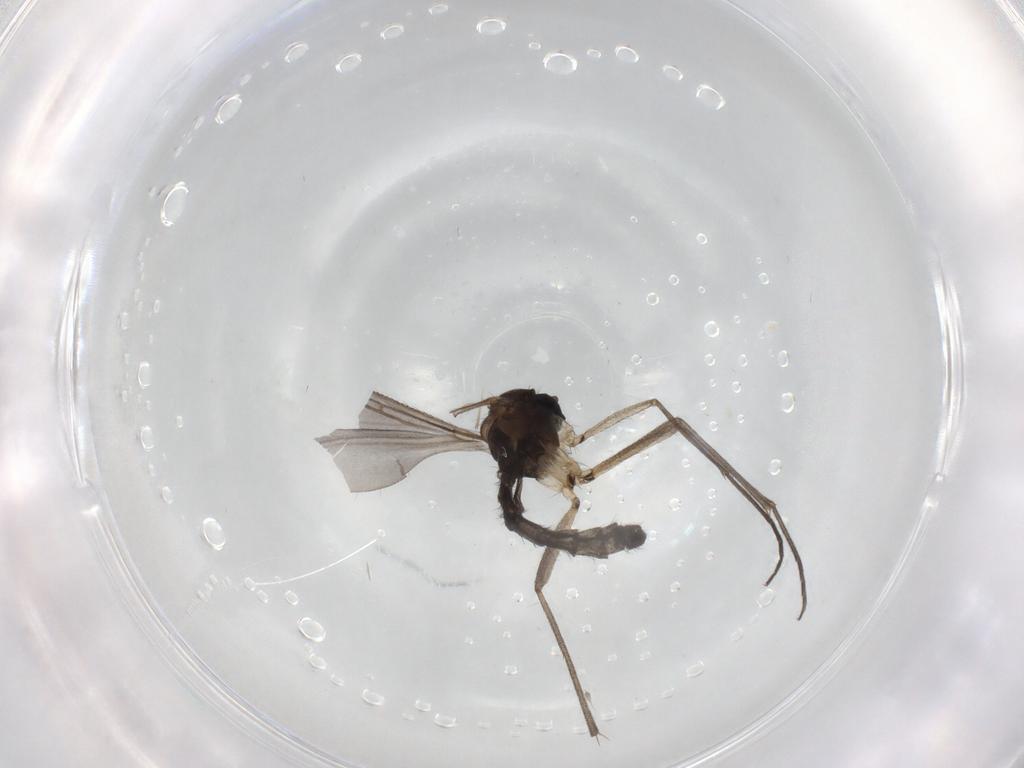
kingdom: Animalia
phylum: Arthropoda
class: Insecta
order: Diptera
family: Sciaridae
